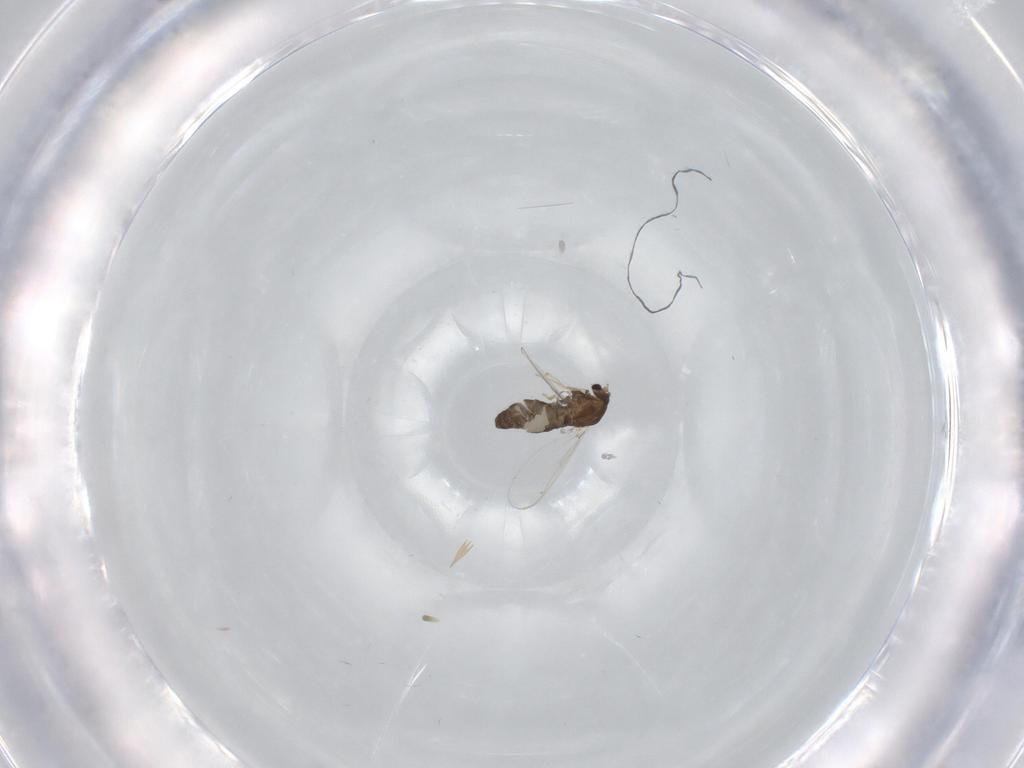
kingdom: Animalia
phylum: Arthropoda
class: Insecta
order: Diptera
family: Chironomidae
